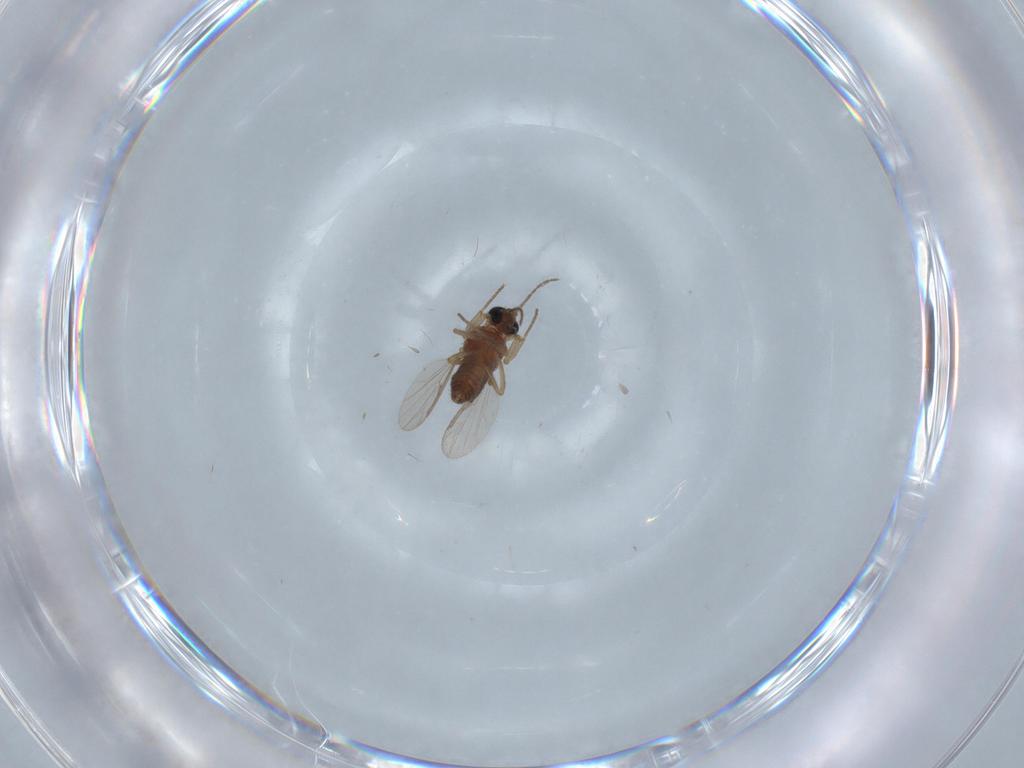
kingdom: Animalia
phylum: Arthropoda
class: Insecta
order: Diptera
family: Psychodidae
